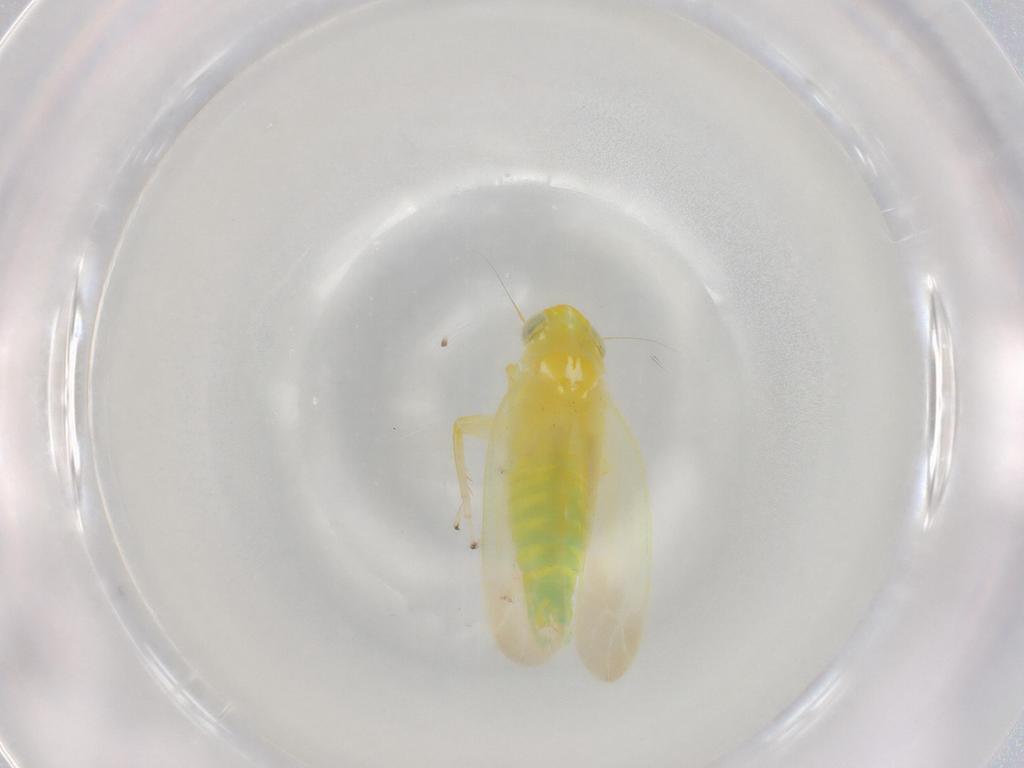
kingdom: Animalia
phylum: Arthropoda
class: Insecta
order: Hemiptera
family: Cicadellidae
